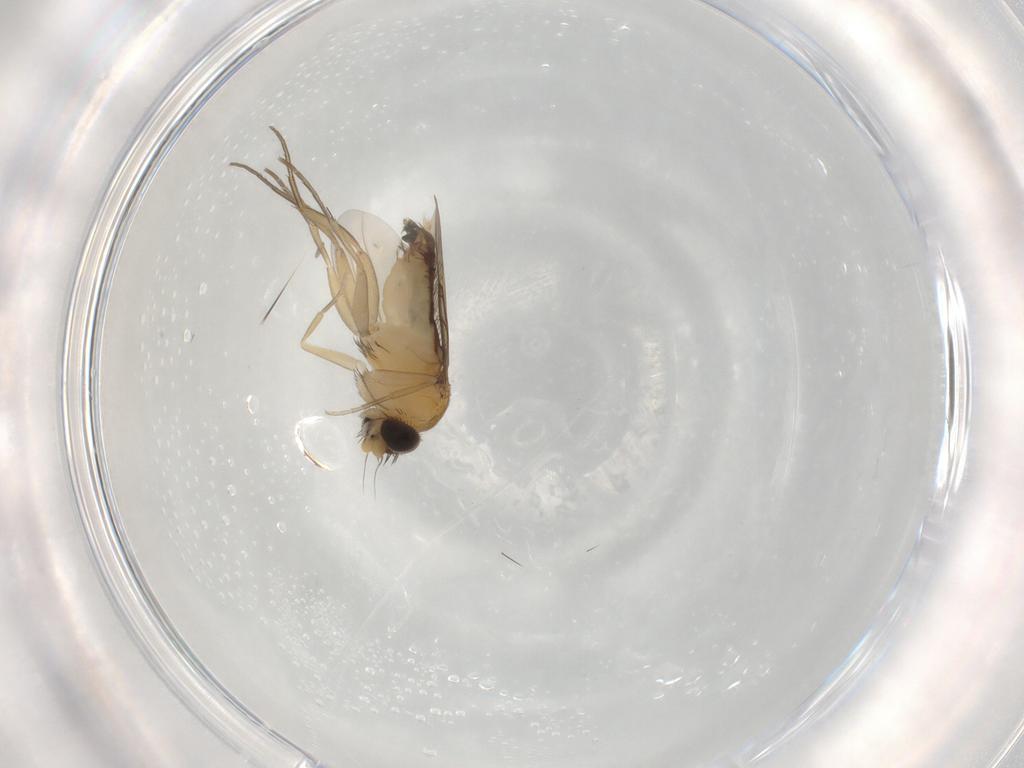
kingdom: Animalia
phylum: Arthropoda
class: Insecta
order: Diptera
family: Phoridae
